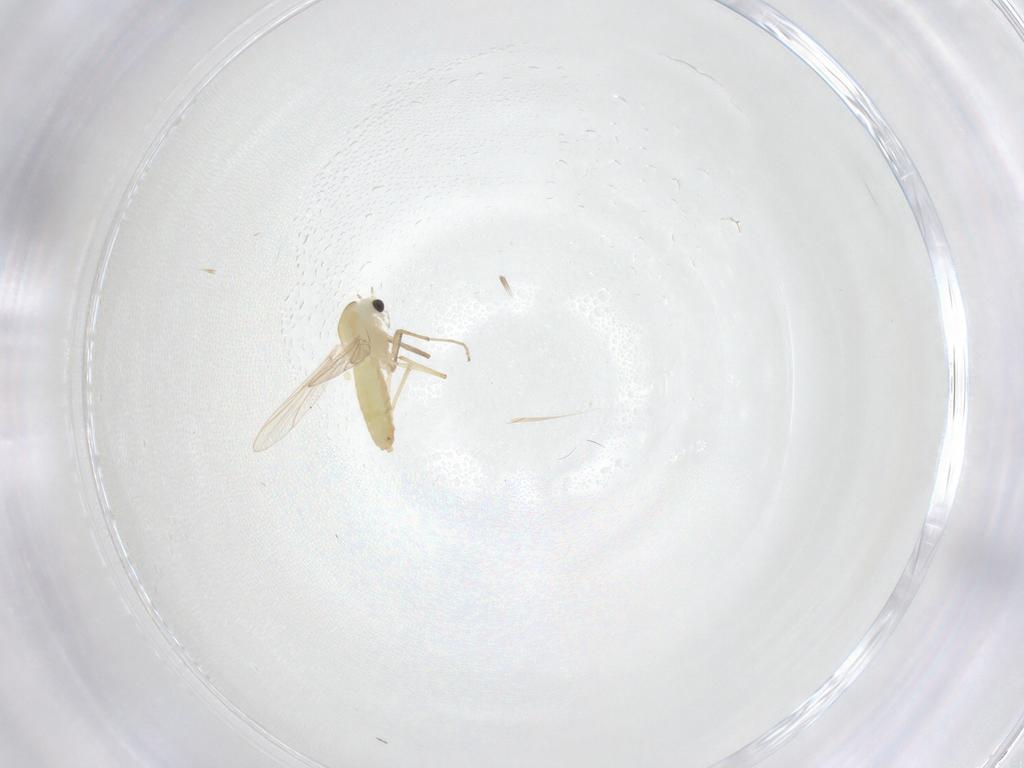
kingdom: Animalia
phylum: Arthropoda
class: Insecta
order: Diptera
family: Chironomidae
